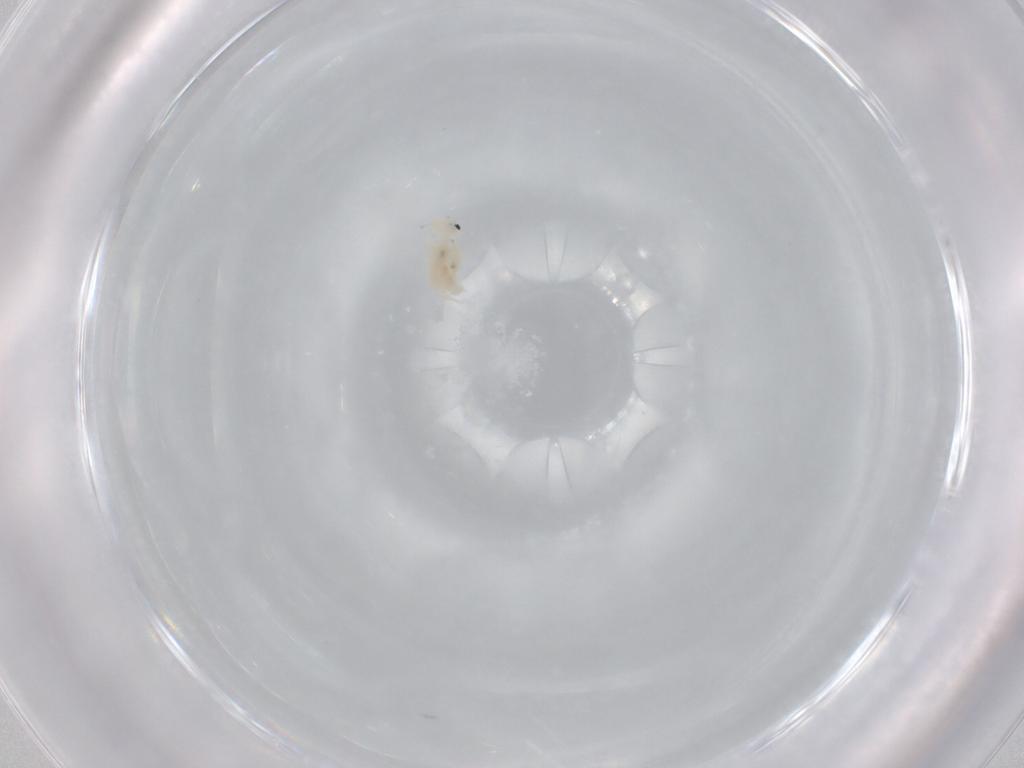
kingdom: Animalia
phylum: Arthropoda
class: Collembola
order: Symphypleona
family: Bourletiellidae
